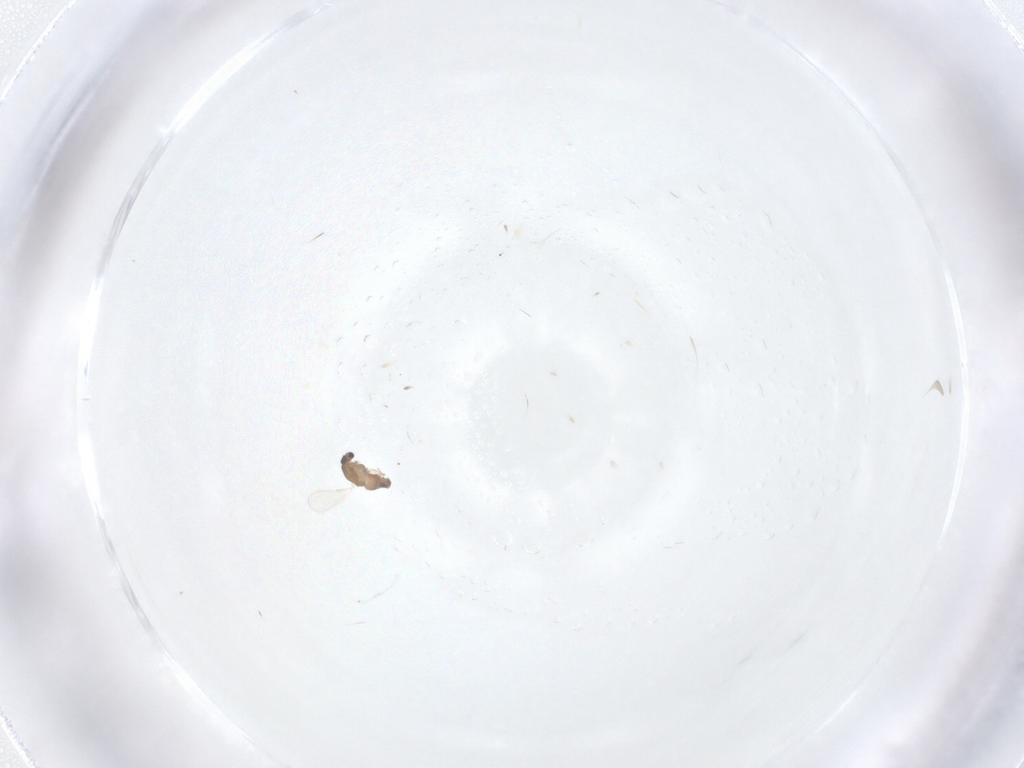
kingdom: Animalia
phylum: Arthropoda
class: Insecta
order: Diptera
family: Chironomidae
